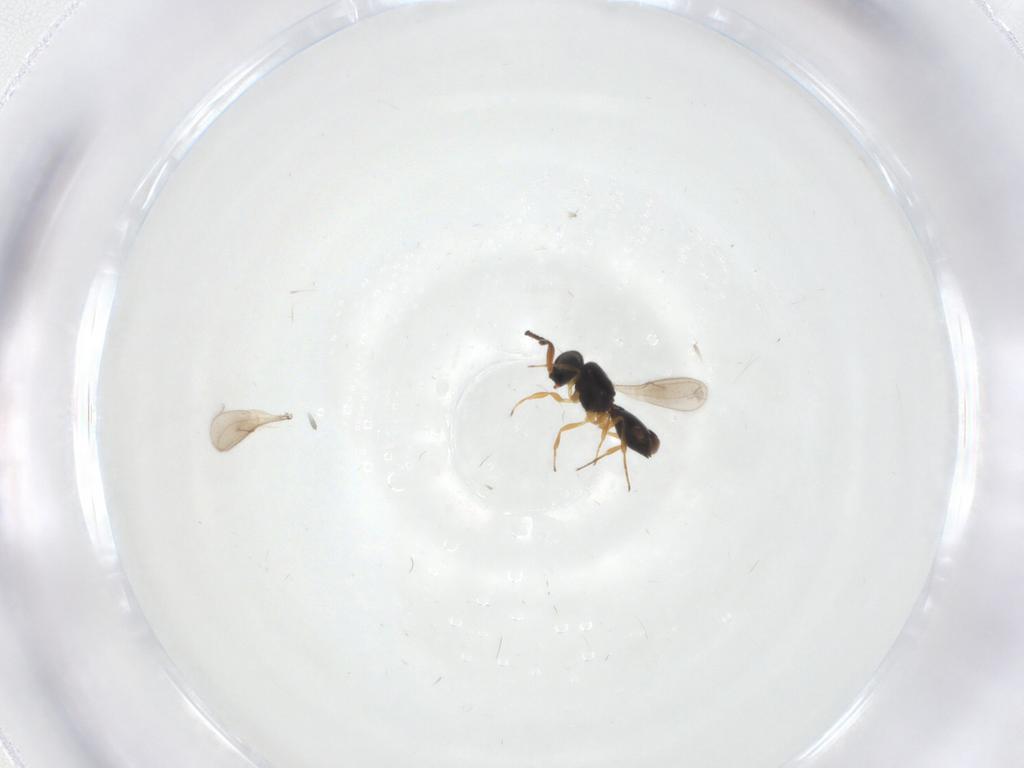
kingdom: Animalia
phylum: Arthropoda
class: Insecta
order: Hymenoptera
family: Scelionidae
